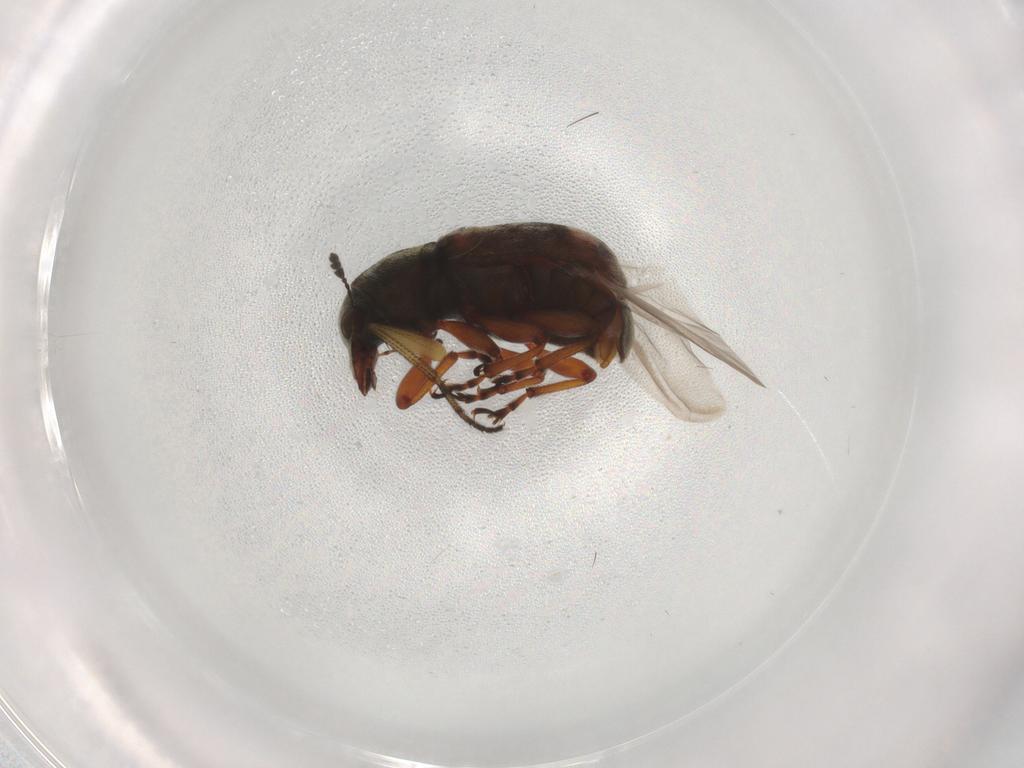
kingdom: Animalia
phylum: Arthropoda
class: Insecta
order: Coleoptera
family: Anthribidae
